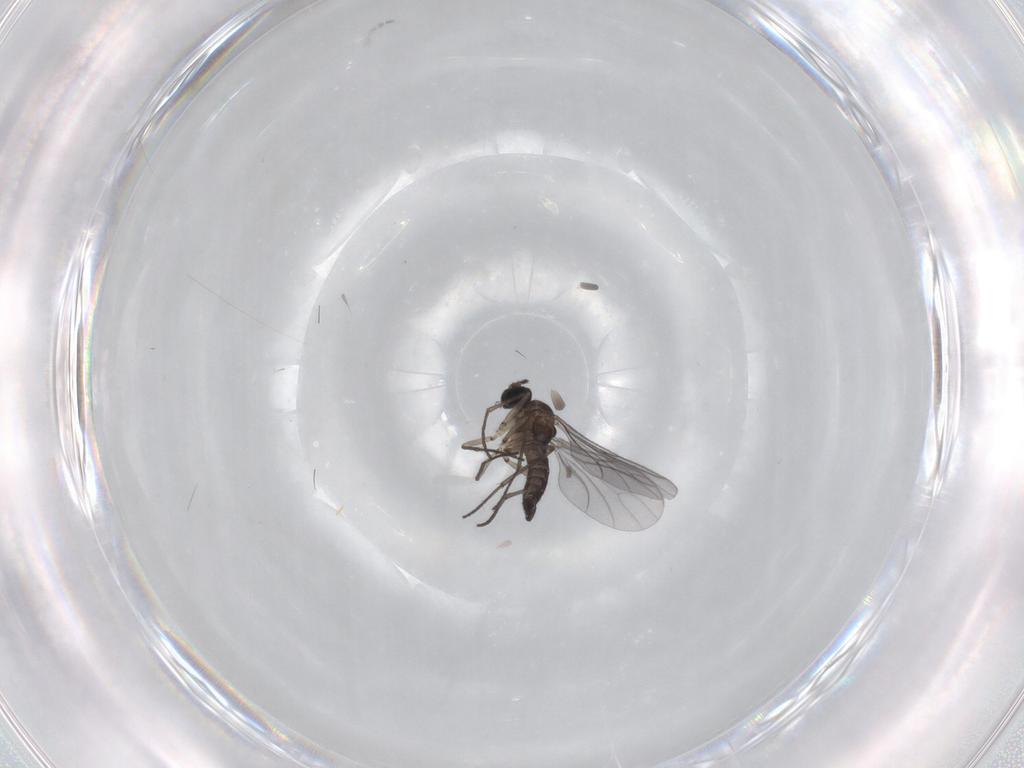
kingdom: Animalia
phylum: Arthropoda
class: Insecta
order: Diptera
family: Sciaridae
